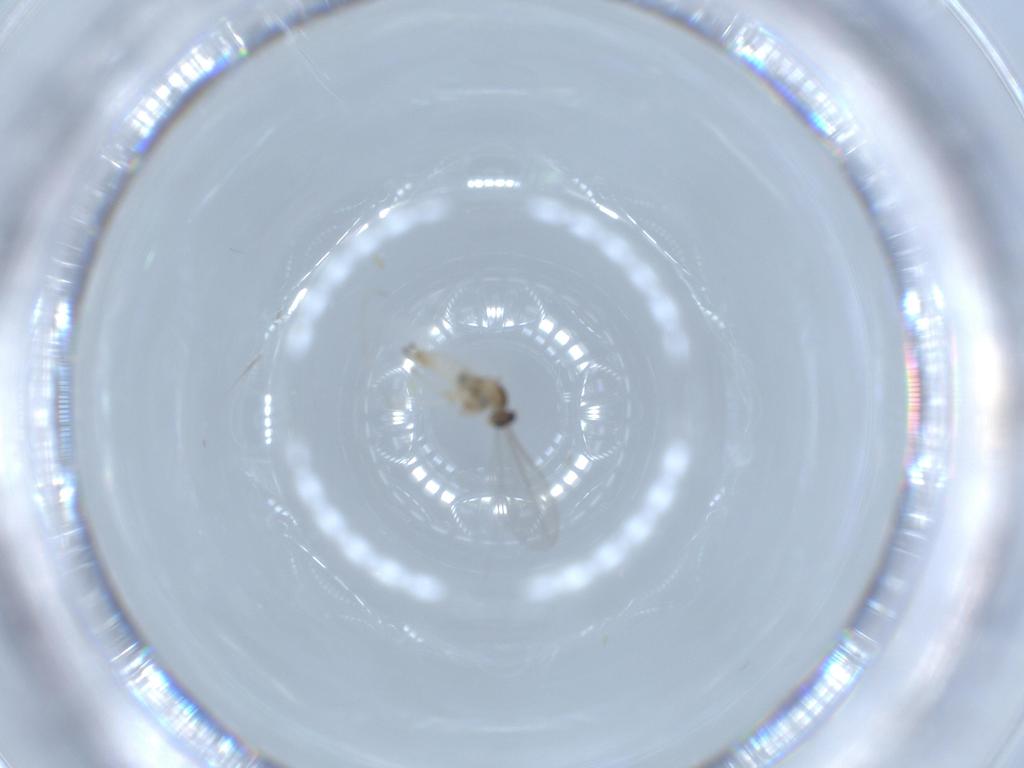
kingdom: Animalia
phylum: Arthropoda
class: Insecta
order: Diptera
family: Cecidomyiidae
